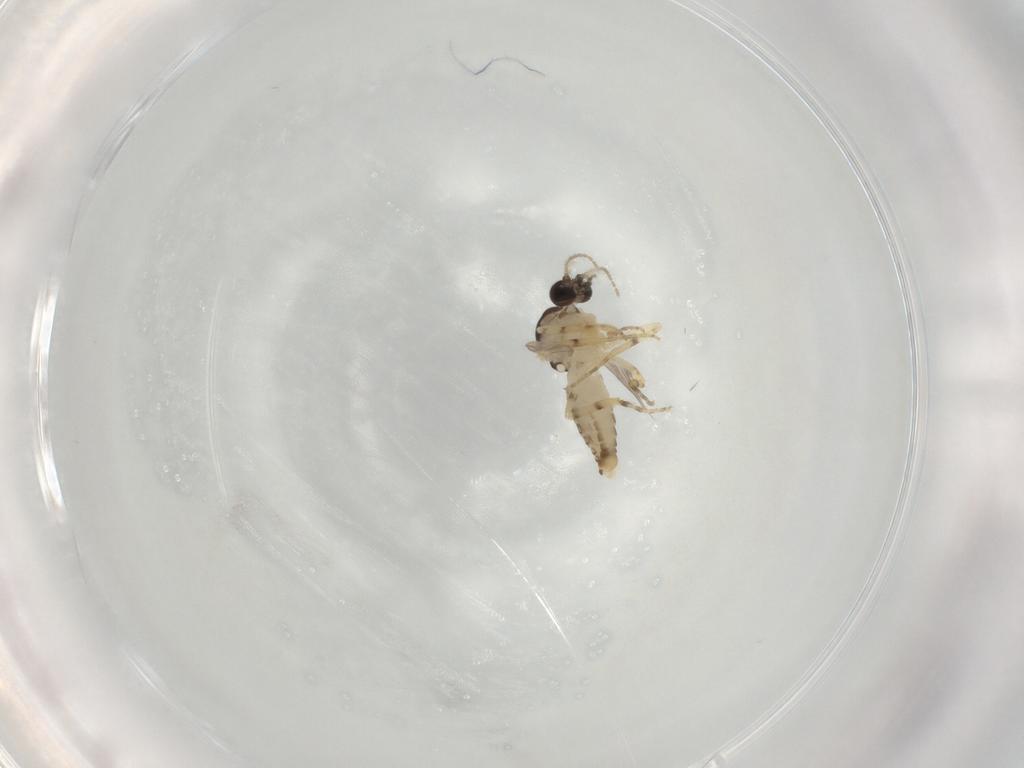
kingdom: Animalia
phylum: Arthropoda
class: Insecta
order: Diptera
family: Ceratopogonidae
